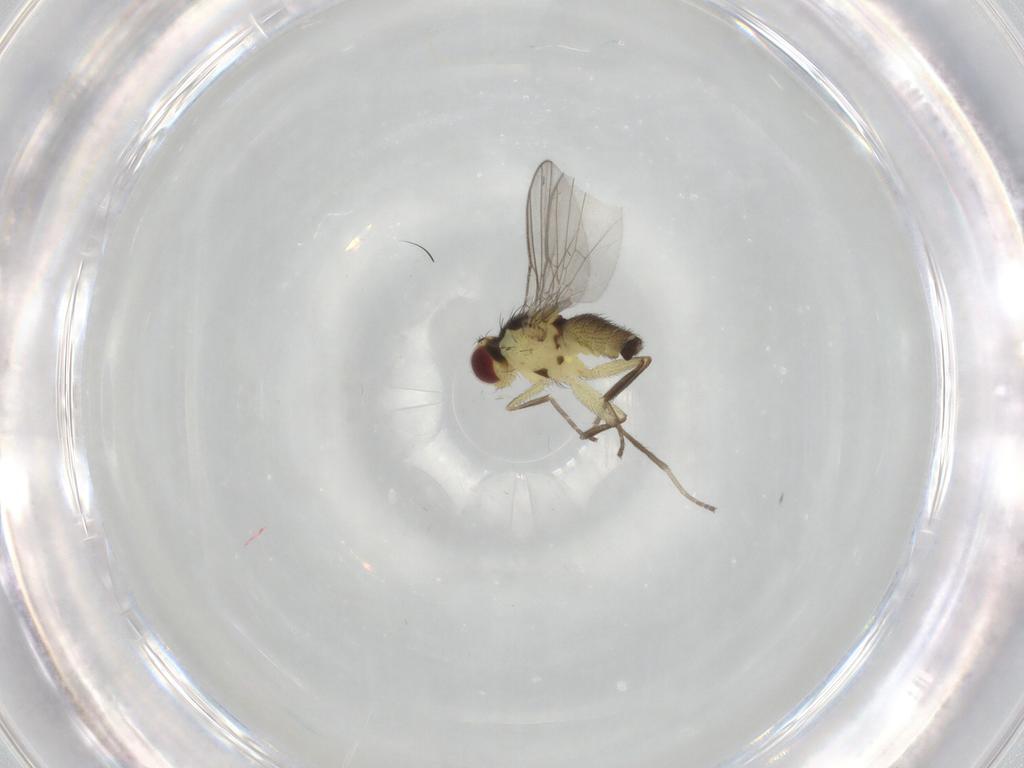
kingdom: Animalia
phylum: Arthropoda
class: Insecta
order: Diptera
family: Agromyzidae
